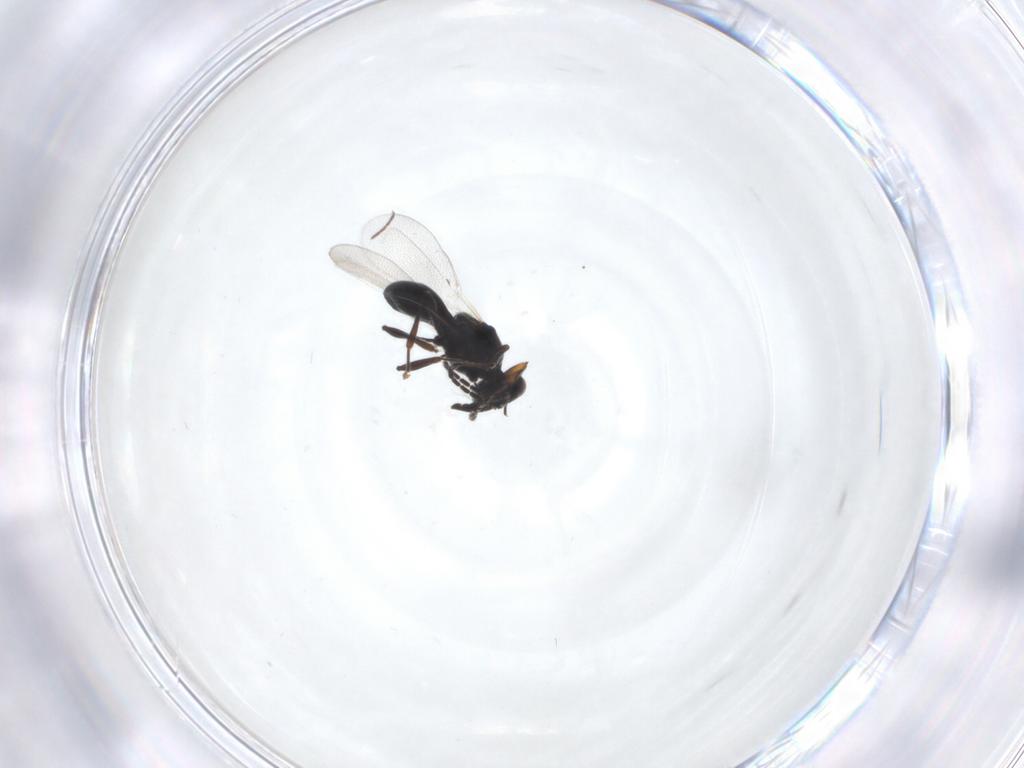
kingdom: Animalia
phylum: Arthropoda
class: Insecta
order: Hymenoptera
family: Platygastridae
